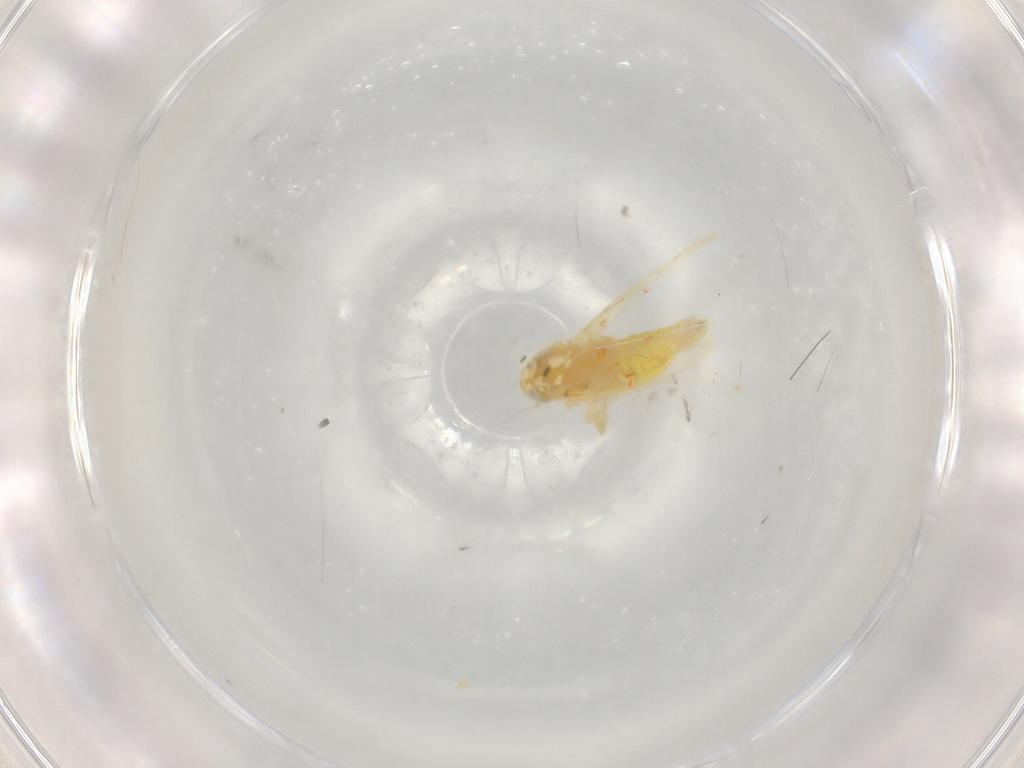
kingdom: Animalia
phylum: Arthropoda
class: Insecta
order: Hemiptera
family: Cicadellidae
